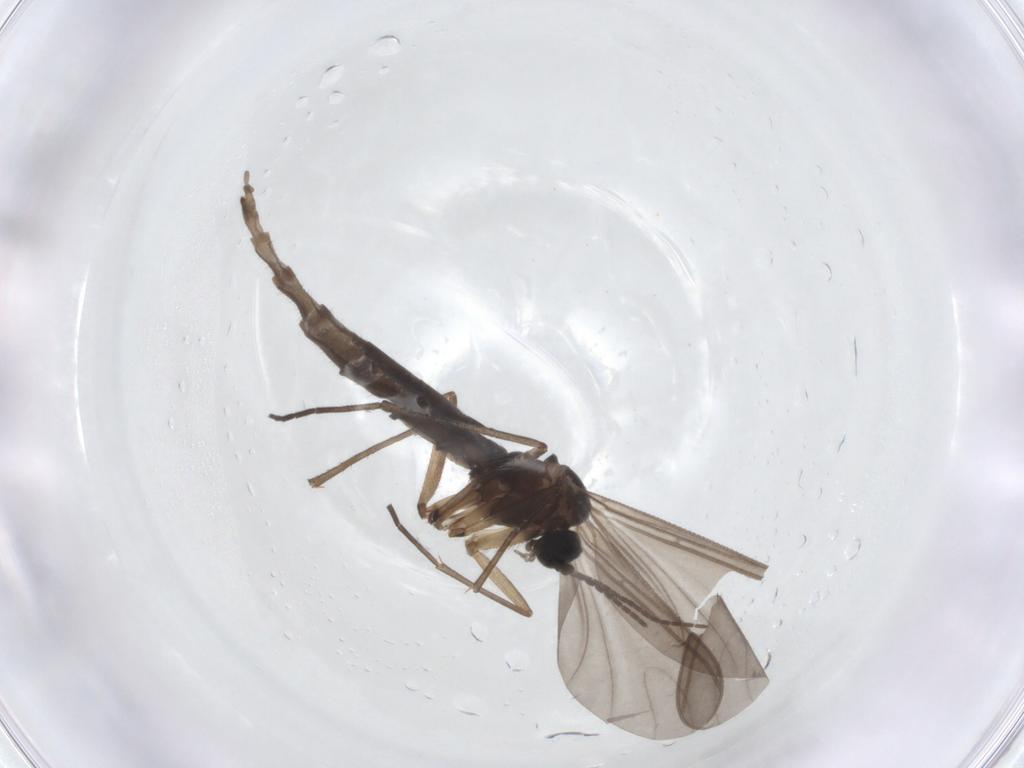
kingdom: Animalia
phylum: Arthropoda
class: Insecta
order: Diptera
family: Sciaridae
